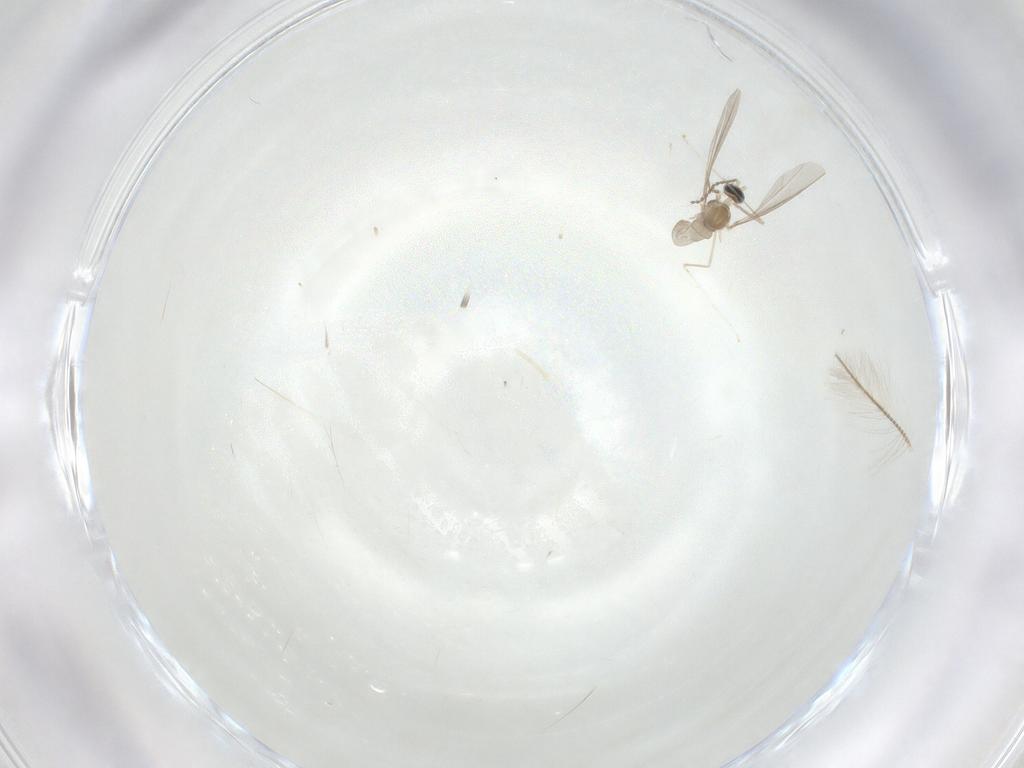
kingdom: Animalia
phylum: Arthropoda
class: Insecta
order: Diptera
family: Cecidomyiidae
